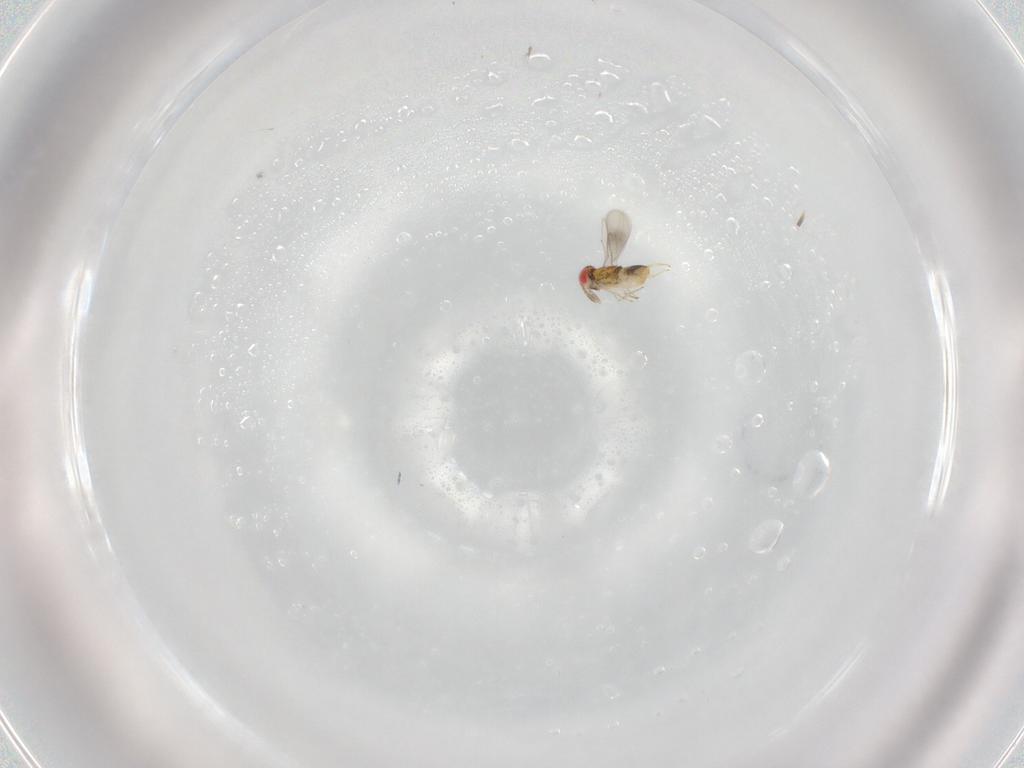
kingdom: Animalia
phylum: Arthropoda
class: Insecta
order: Hymenoptera
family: Aphelinidae
